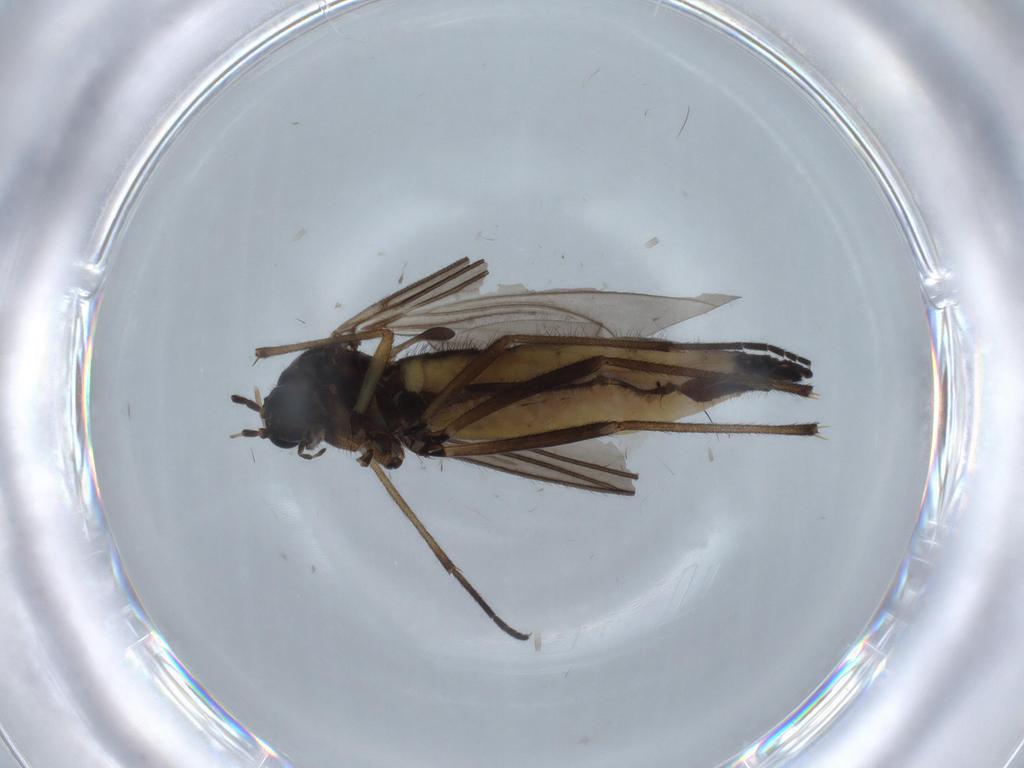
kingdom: Animalia
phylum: Arthropoda
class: Insecta
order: Diptera
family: Sciaridae
